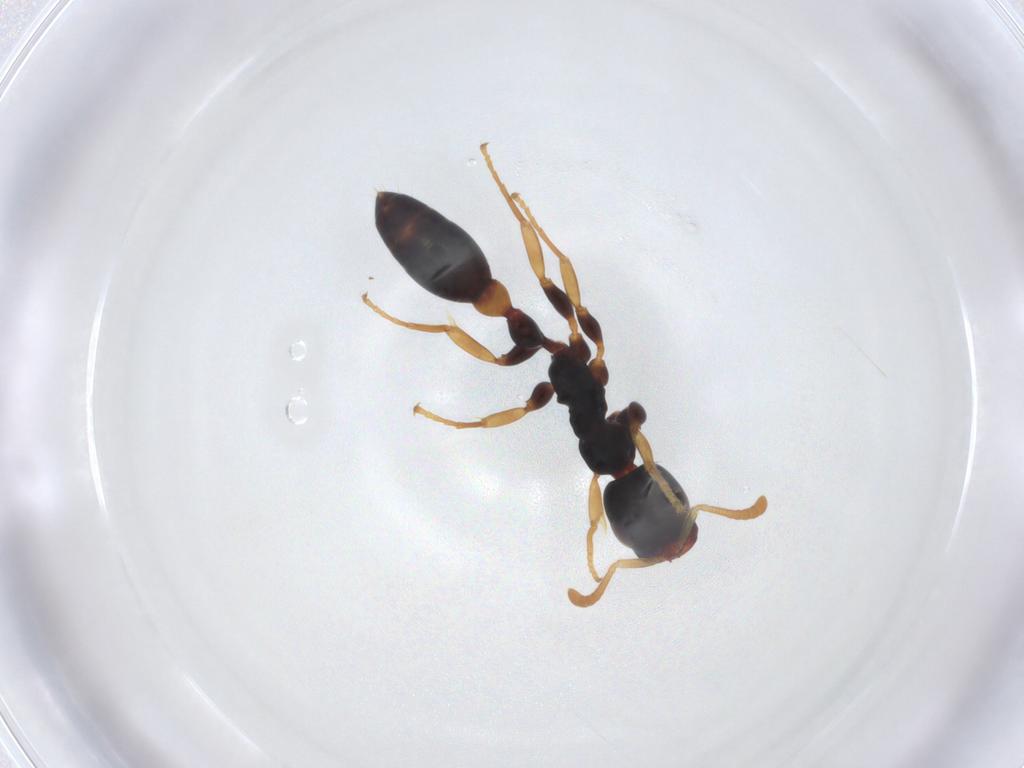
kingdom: Animalia
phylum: Arthropoda
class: Insecta
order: Hymenoptera
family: Formicidae
